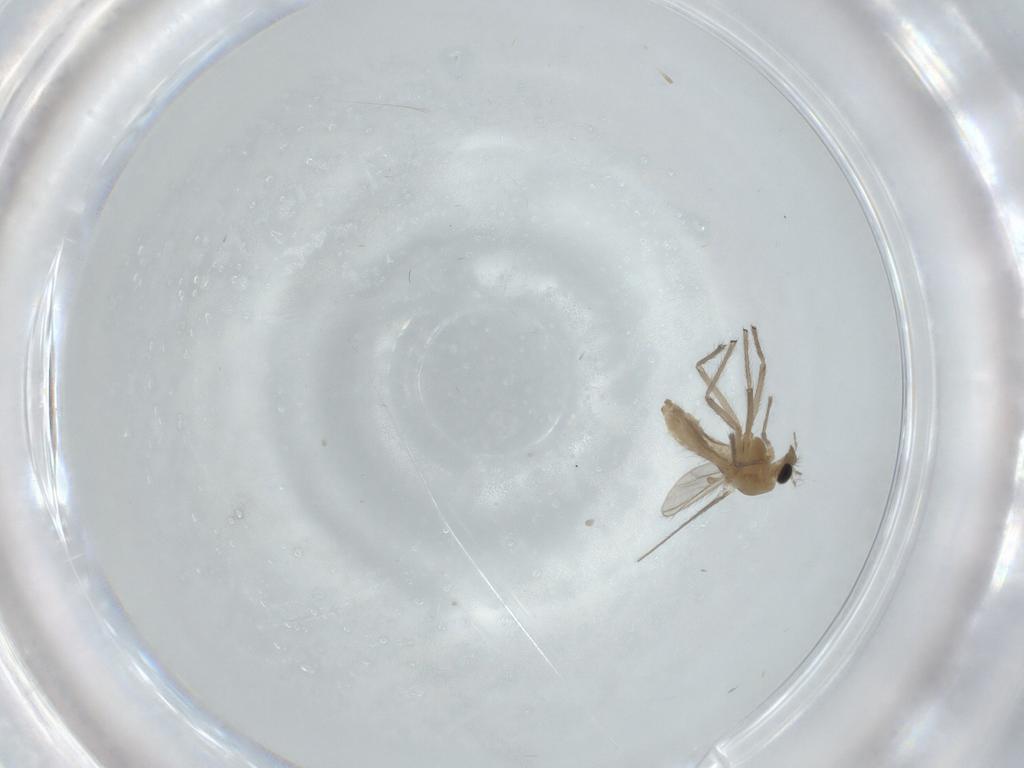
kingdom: Animalia
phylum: Arthropoda
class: Insecta
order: Diptera
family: Chironomidae
